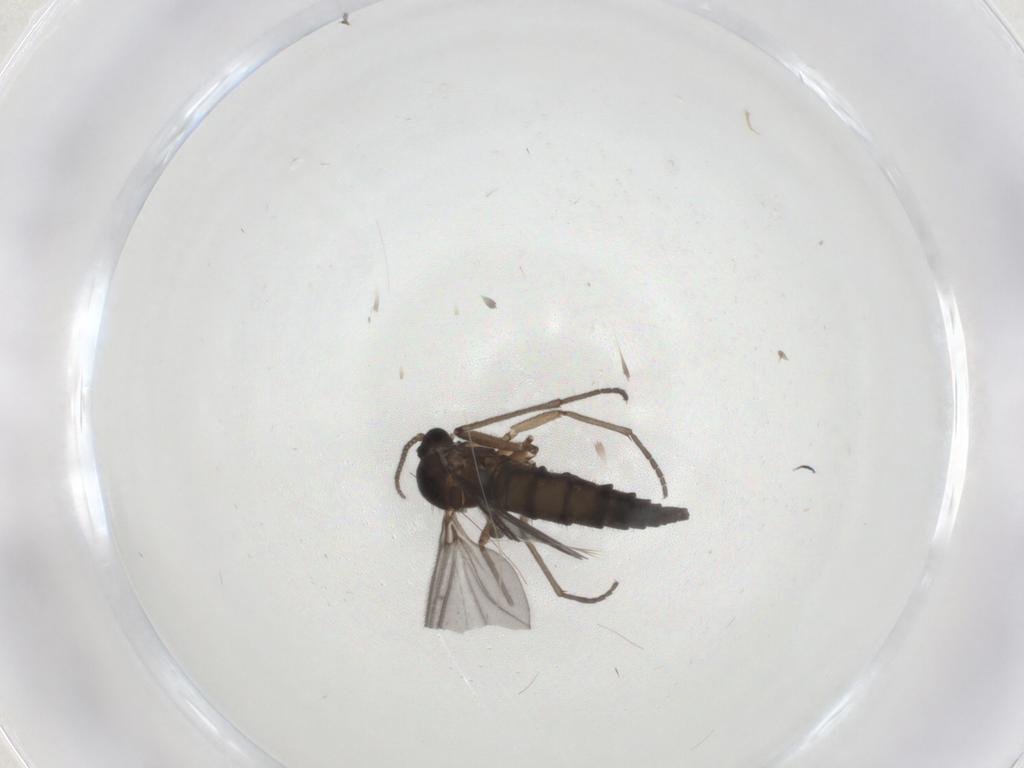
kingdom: Animalia
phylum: Arthropoda
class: Insecta
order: Diptera
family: Sciaridae
